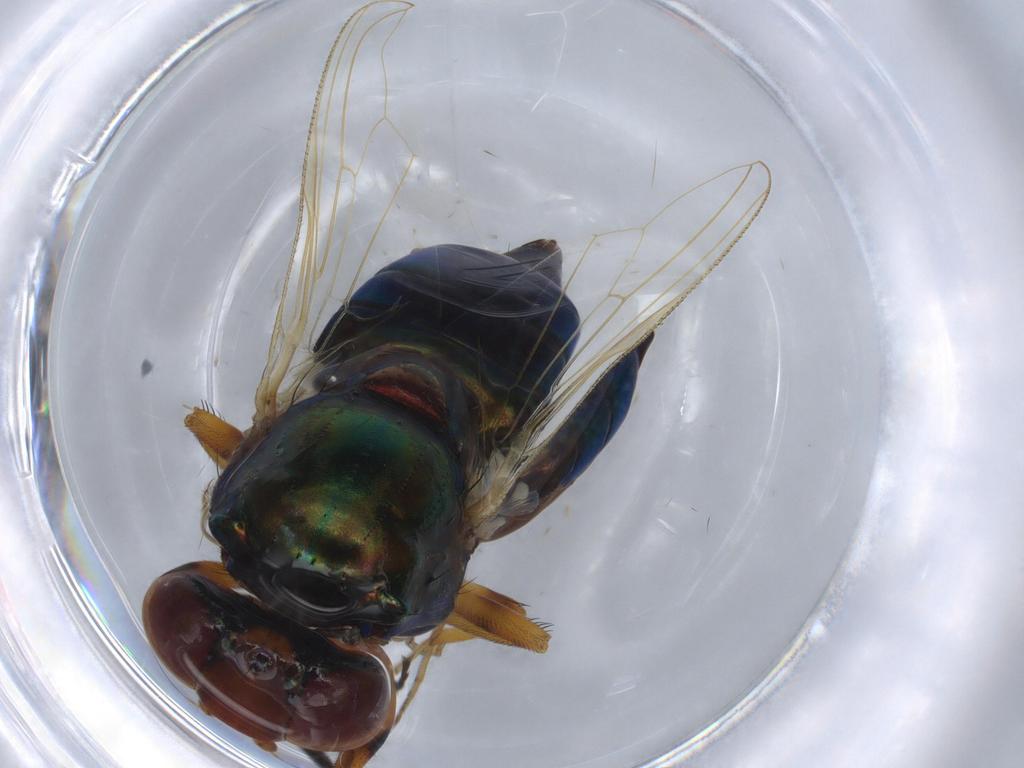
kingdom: Animalia
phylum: Arthropoda
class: Insecta
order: Diptera
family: Ulidiidae
